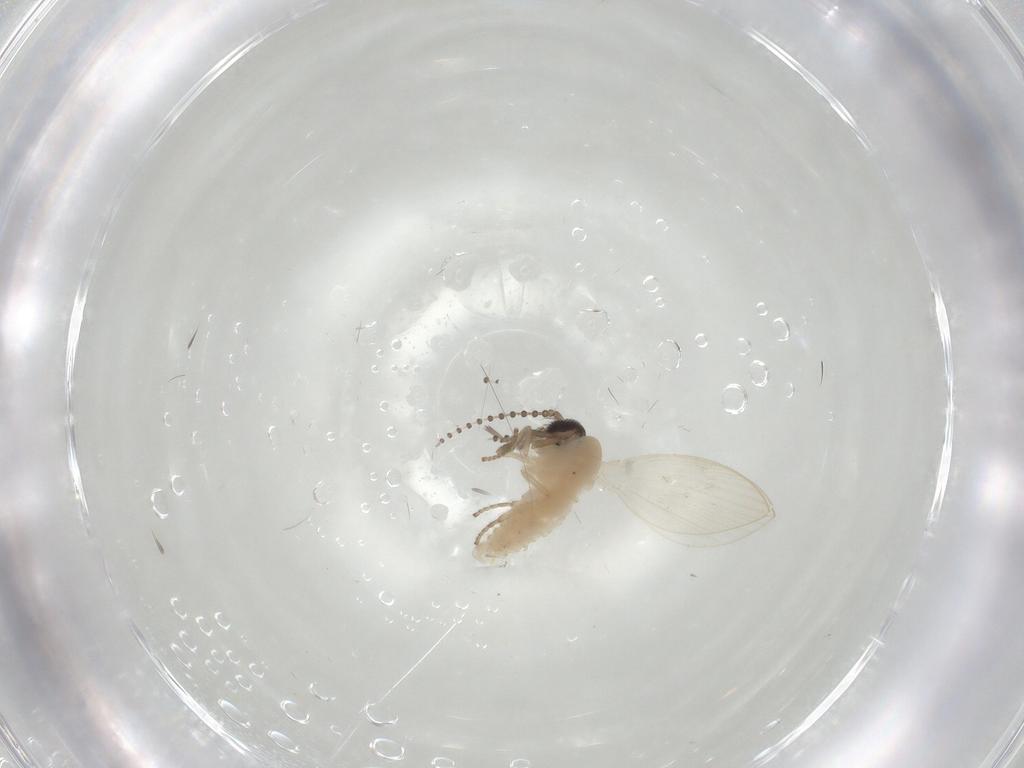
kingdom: Animalia
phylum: Arthropoda
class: Insecta
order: Diptera
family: Psychodidae
